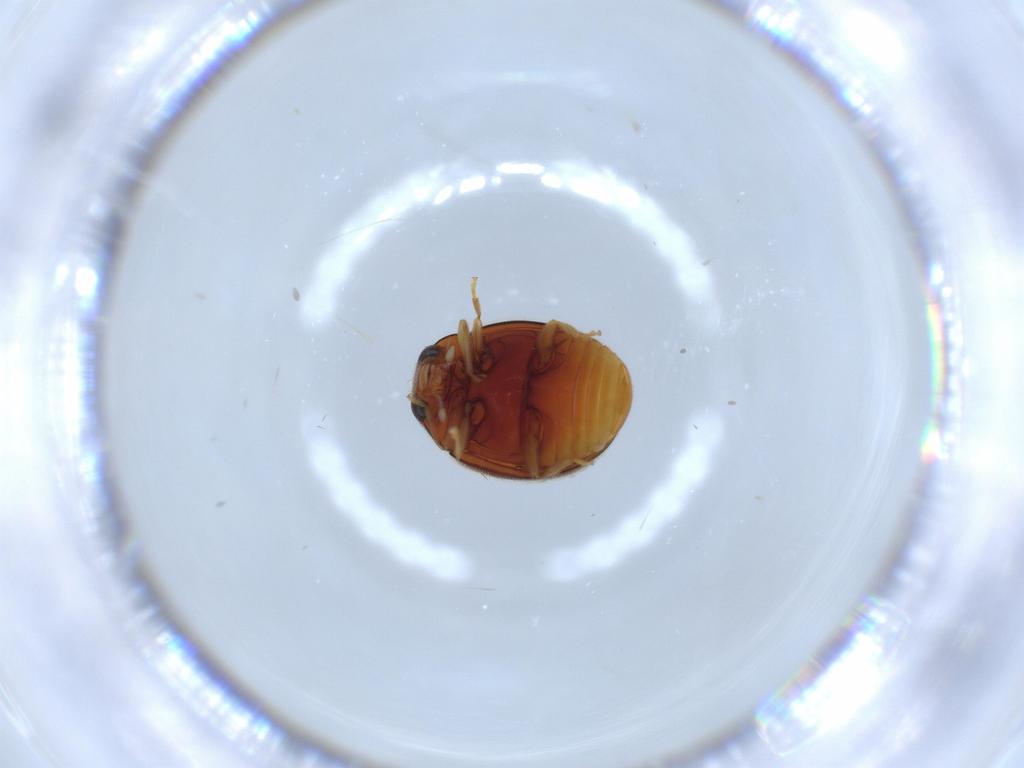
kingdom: Animalia
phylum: Arthropoda
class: Insecta
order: Coleoptera
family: Coccinellidae
